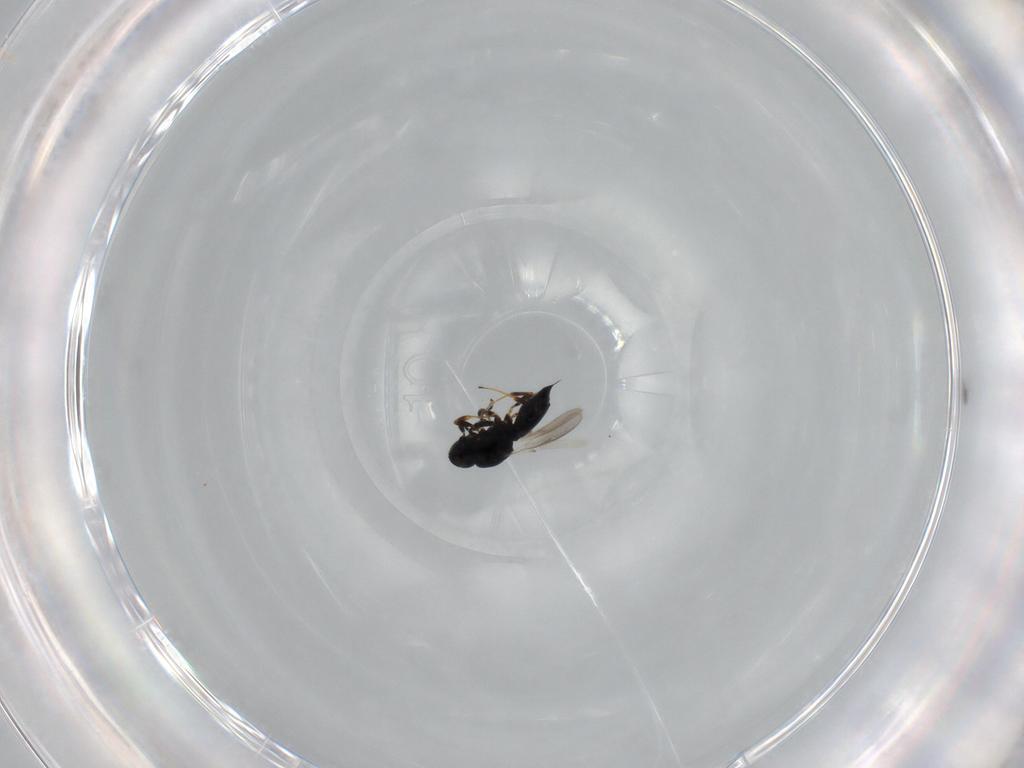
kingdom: Animalia
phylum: Arthropoda
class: Insecta
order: Hymenoptera
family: Scelionidae
